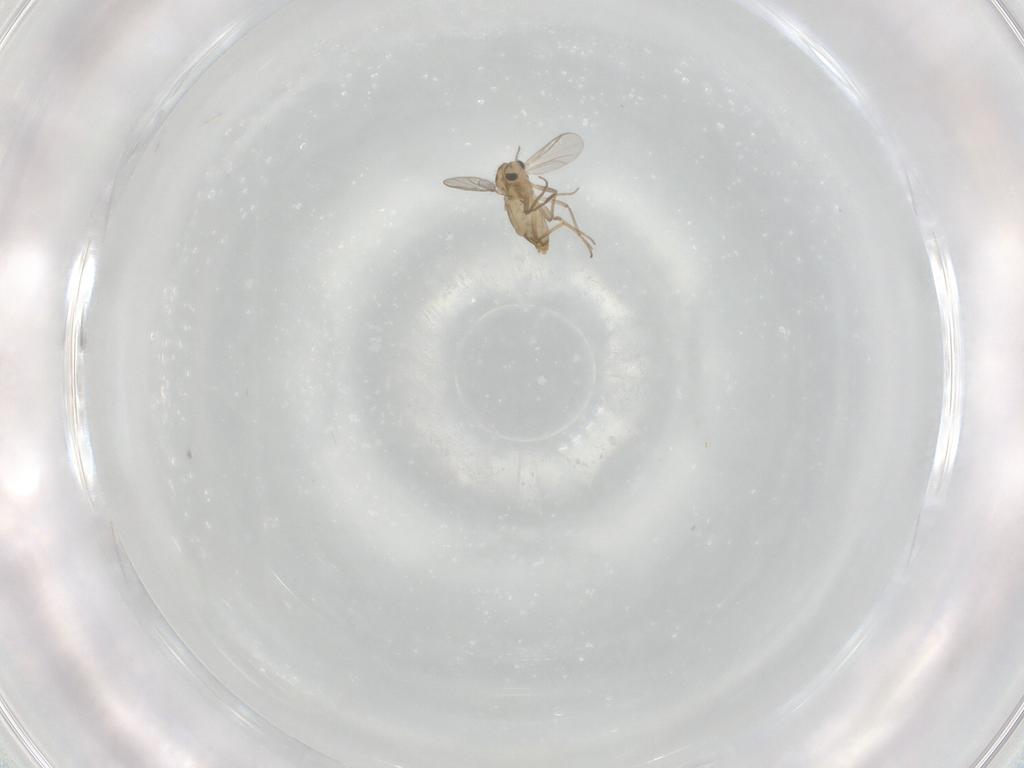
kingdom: Animalia
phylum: Arthropoda
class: Insecta
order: Diptera
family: Chironomidae
